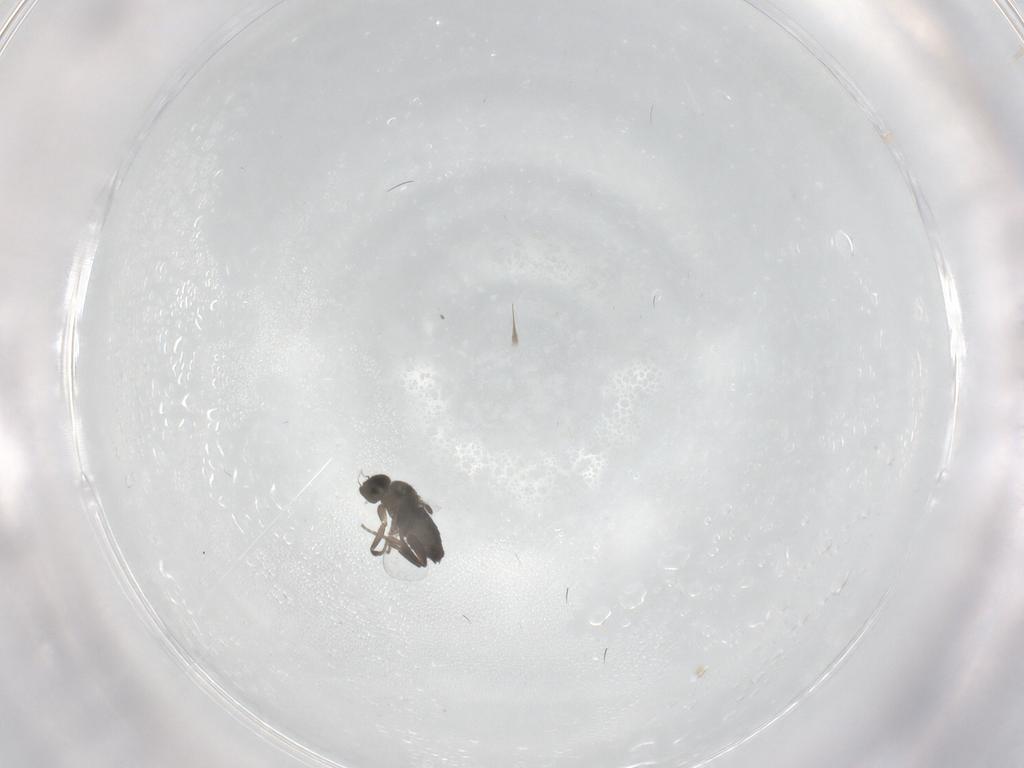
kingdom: Animalia
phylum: Arthropoda
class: Insecta
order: Diptera
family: Phoridae
